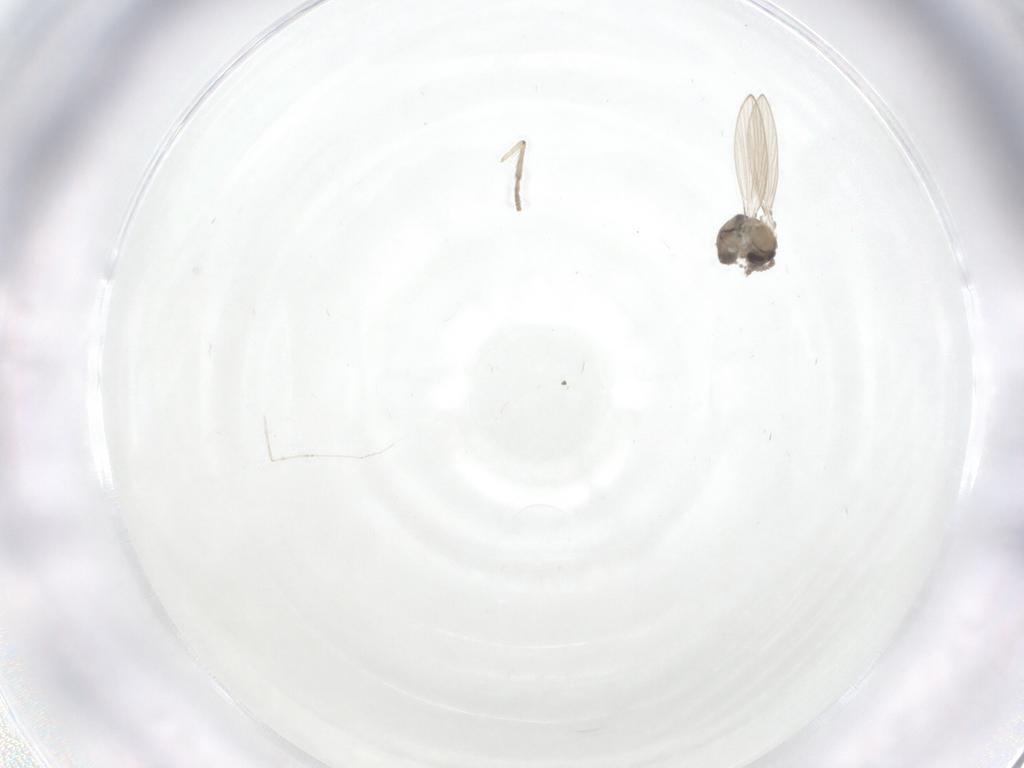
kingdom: Animalia
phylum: Arthropoda
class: Insecta
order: Diptera
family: Psychodidae
